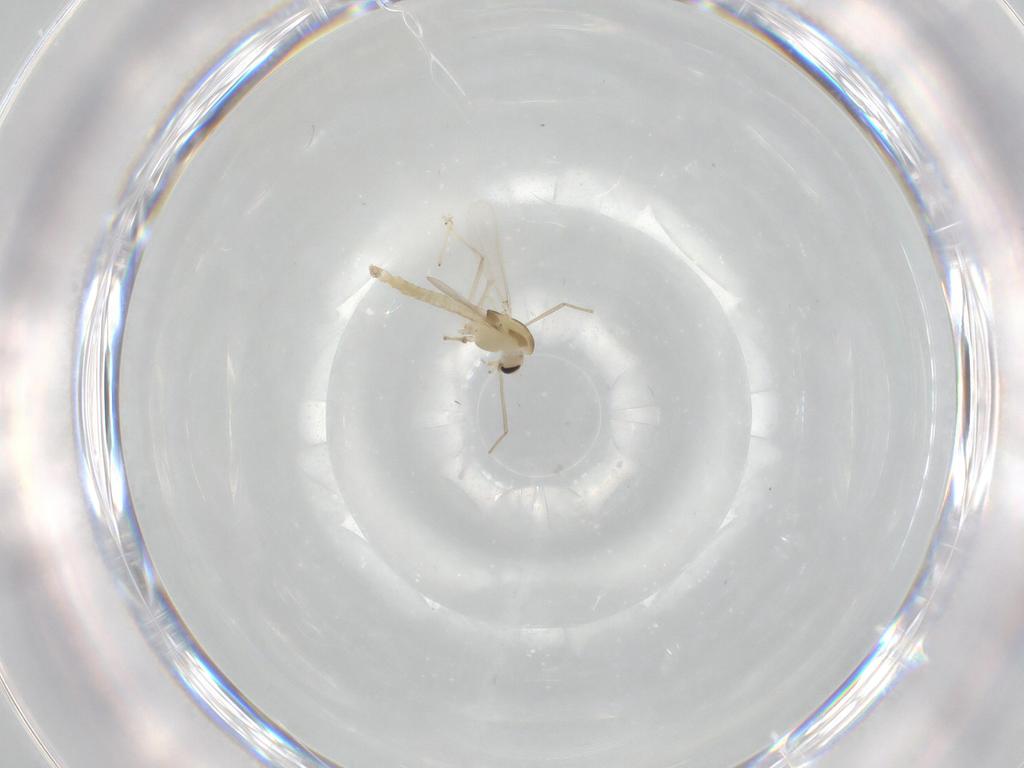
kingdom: Animalia
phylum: Arthropoda
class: Insecta
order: Diptera
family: Chironomidae
